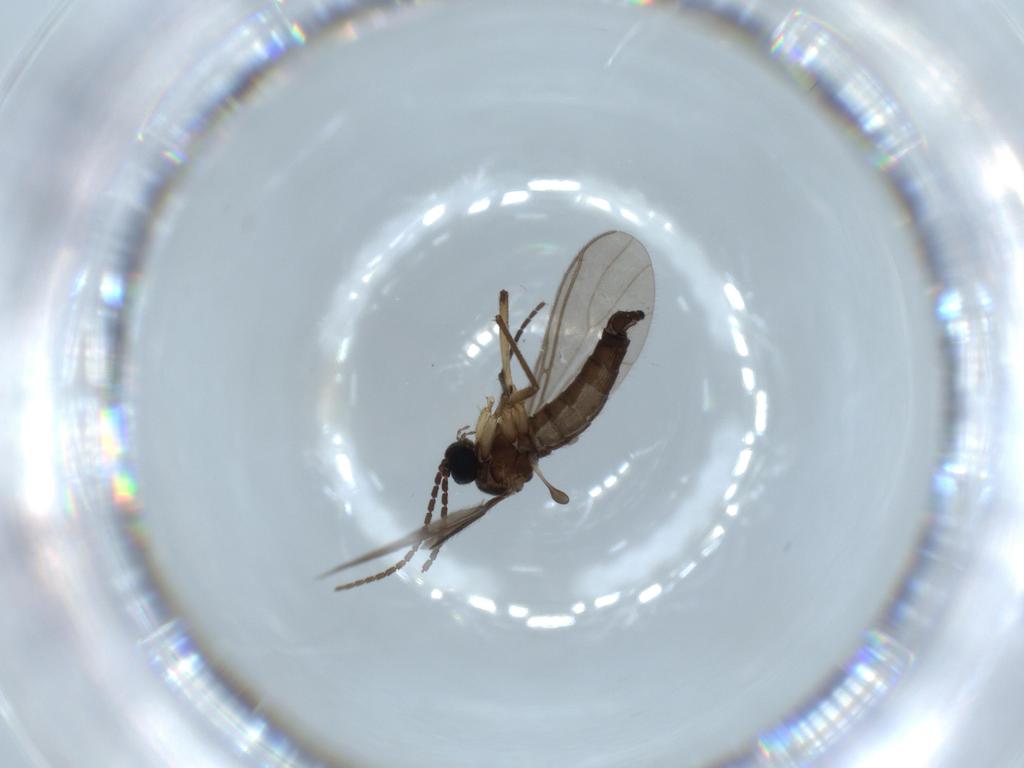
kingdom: Animalia
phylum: Arthropoda
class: Insecta
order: Diptera
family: Sciaridae
